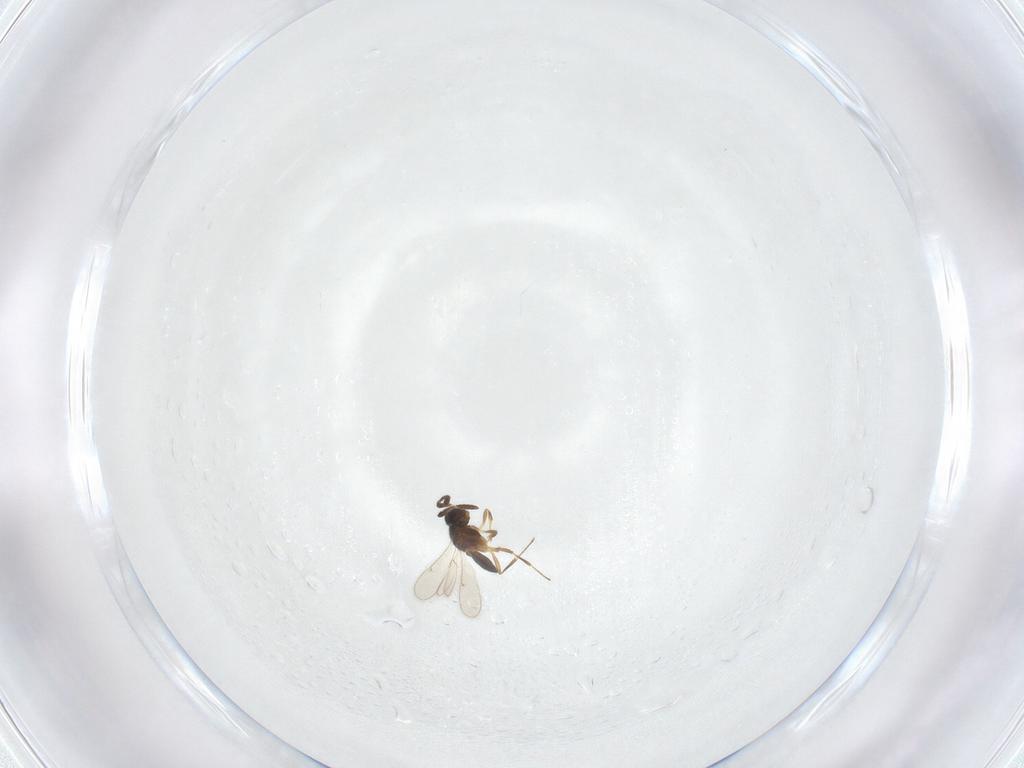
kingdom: Animalia
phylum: Arthropoda
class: Insecta
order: Hymenoptera
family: Scelionidae
